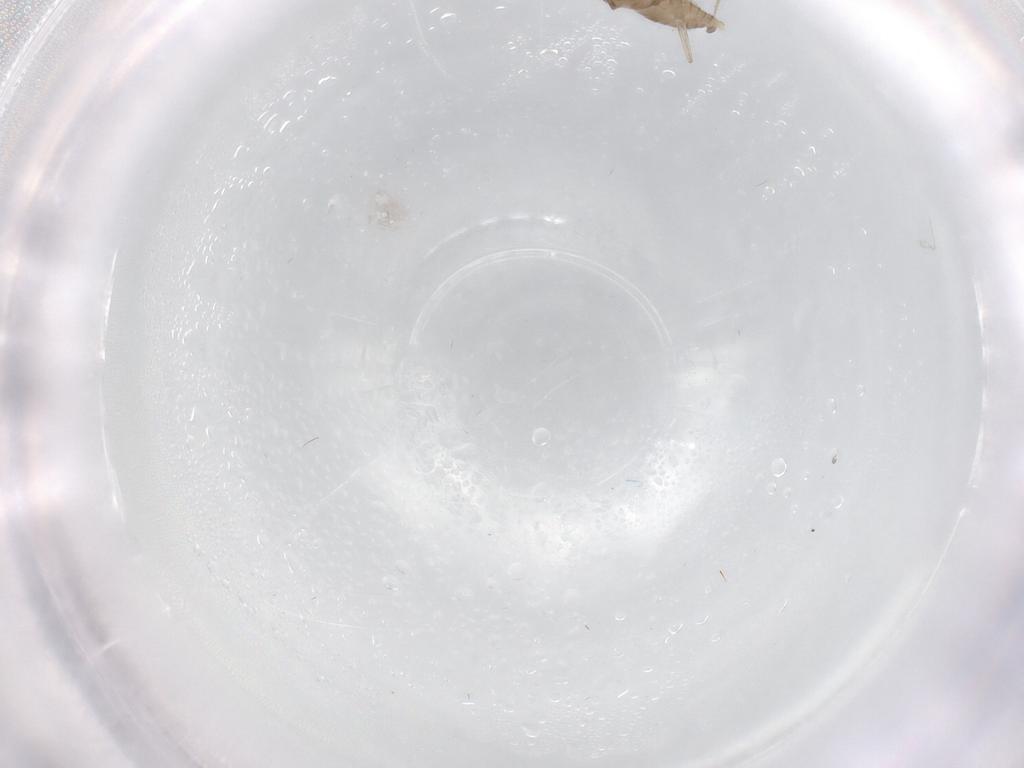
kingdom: Animalia
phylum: Arthropoda
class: Insecta
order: Diptera
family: Cecidomyiidae
